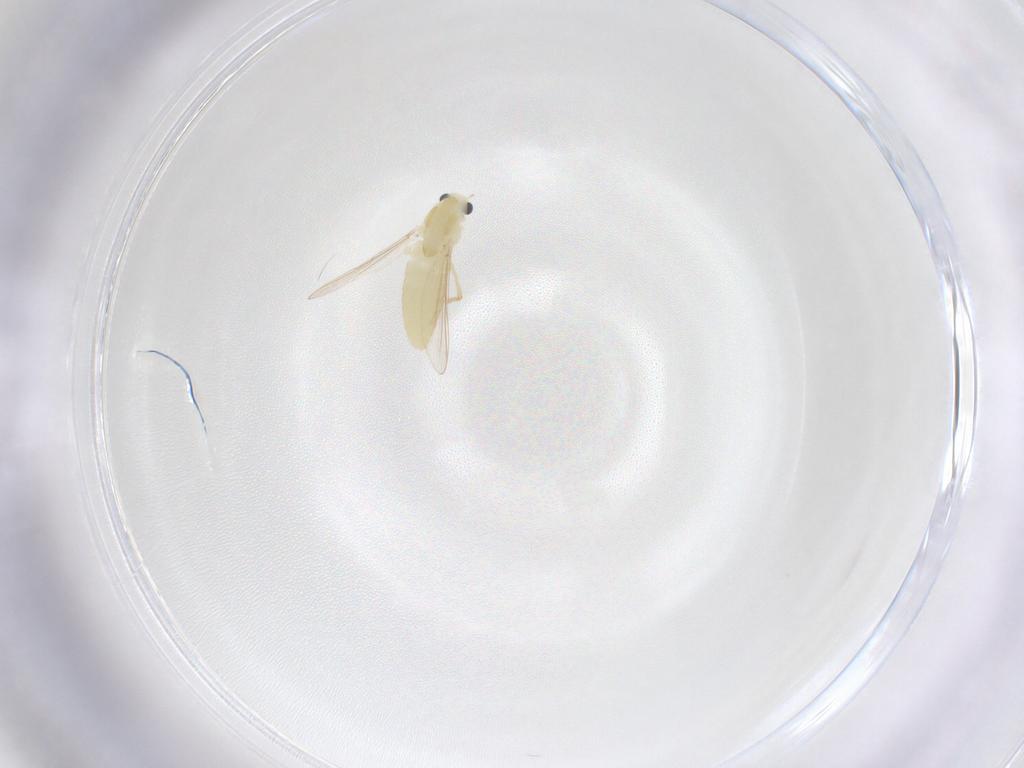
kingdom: Animalia
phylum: Arthropoda
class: Insecta
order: Diptera
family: Chironomidae
